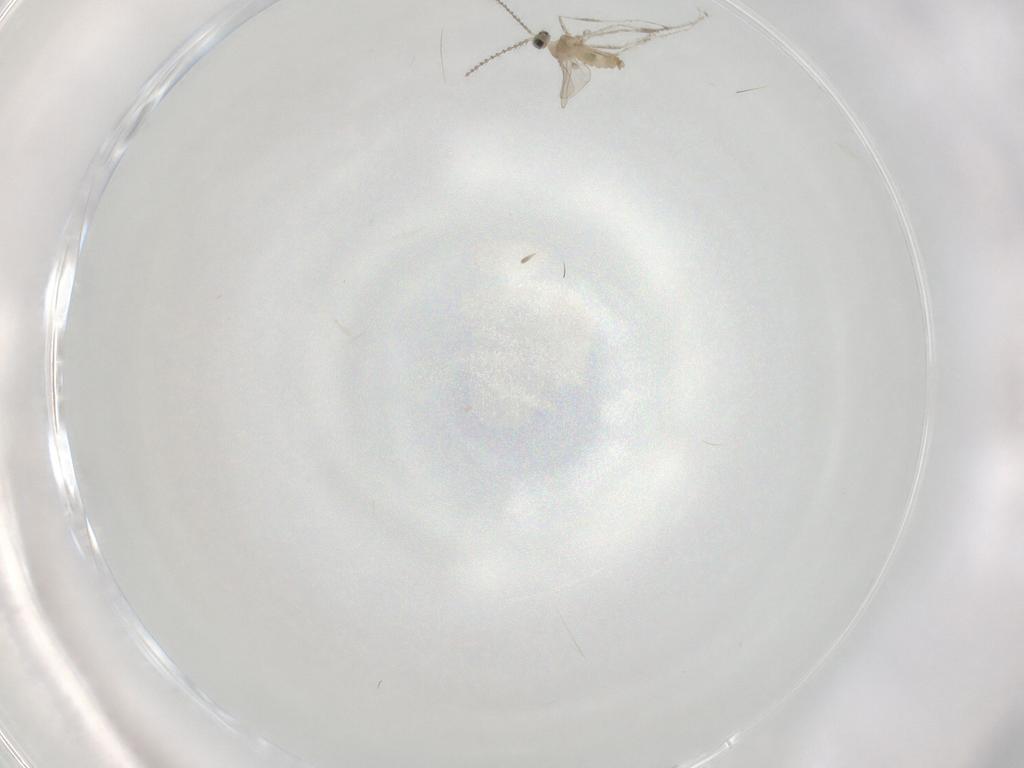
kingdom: Animalia
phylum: Arthropoda
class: Insecta
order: Diptera
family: Cecidomyiidae
